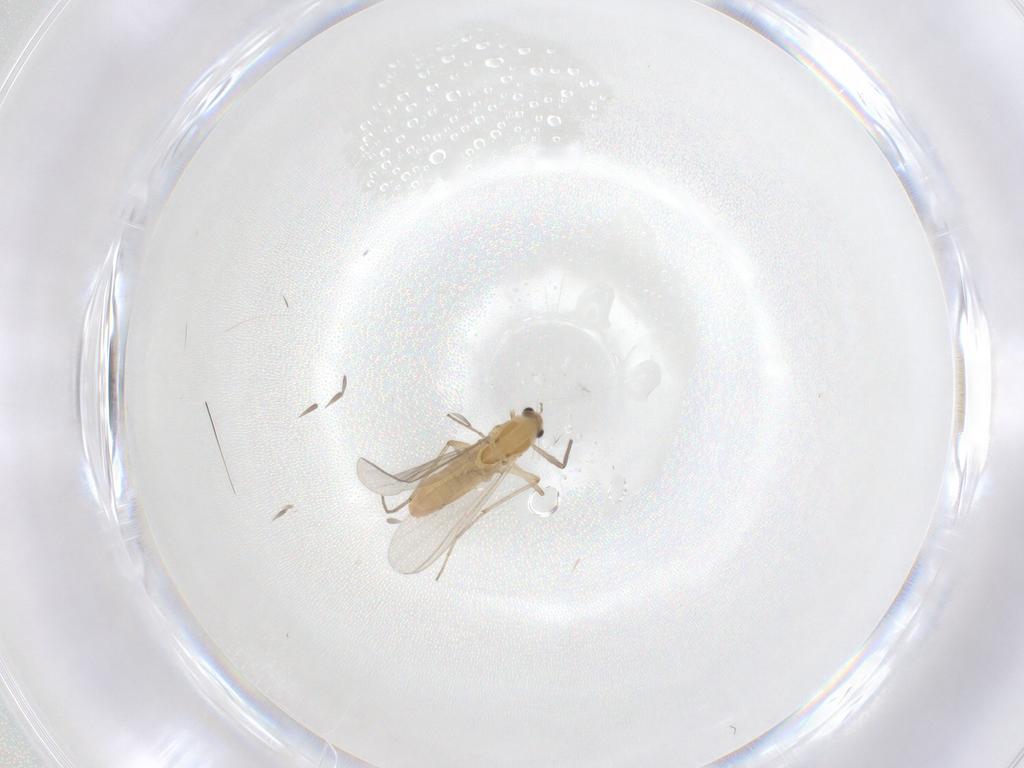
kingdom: Animalia
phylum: Arthropoda
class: Insecta
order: Diptera
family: Chironomidae
